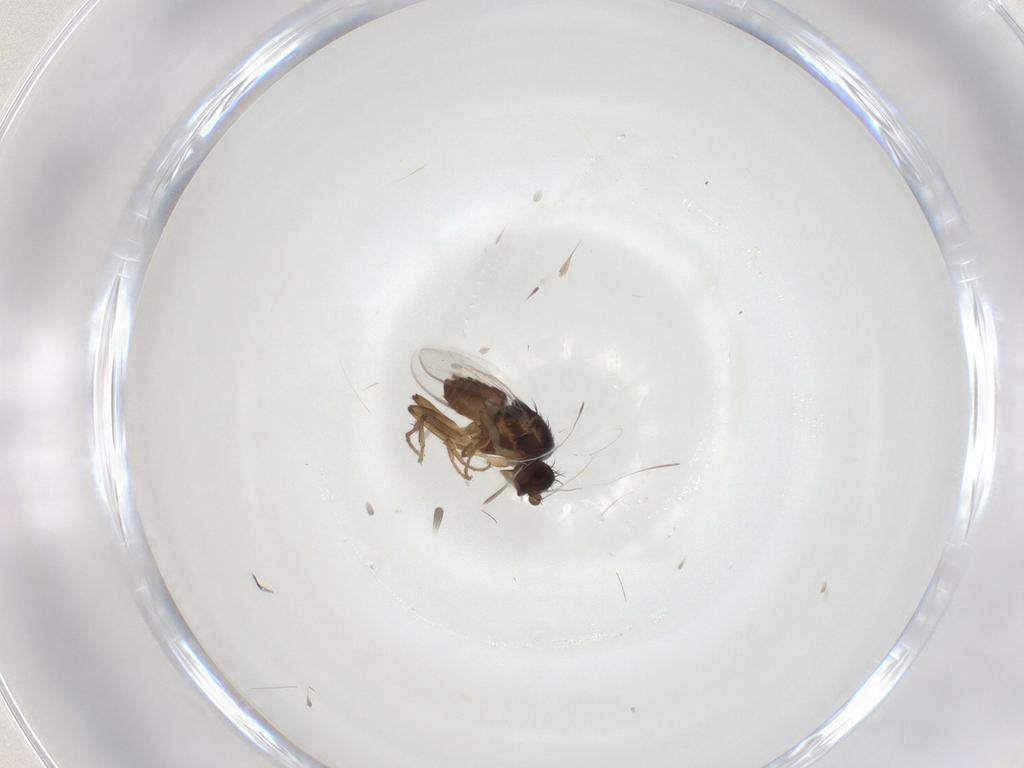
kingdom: Animalia
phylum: Arthropoda
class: Insecta
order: Diptera
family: Sphaeroceridae
